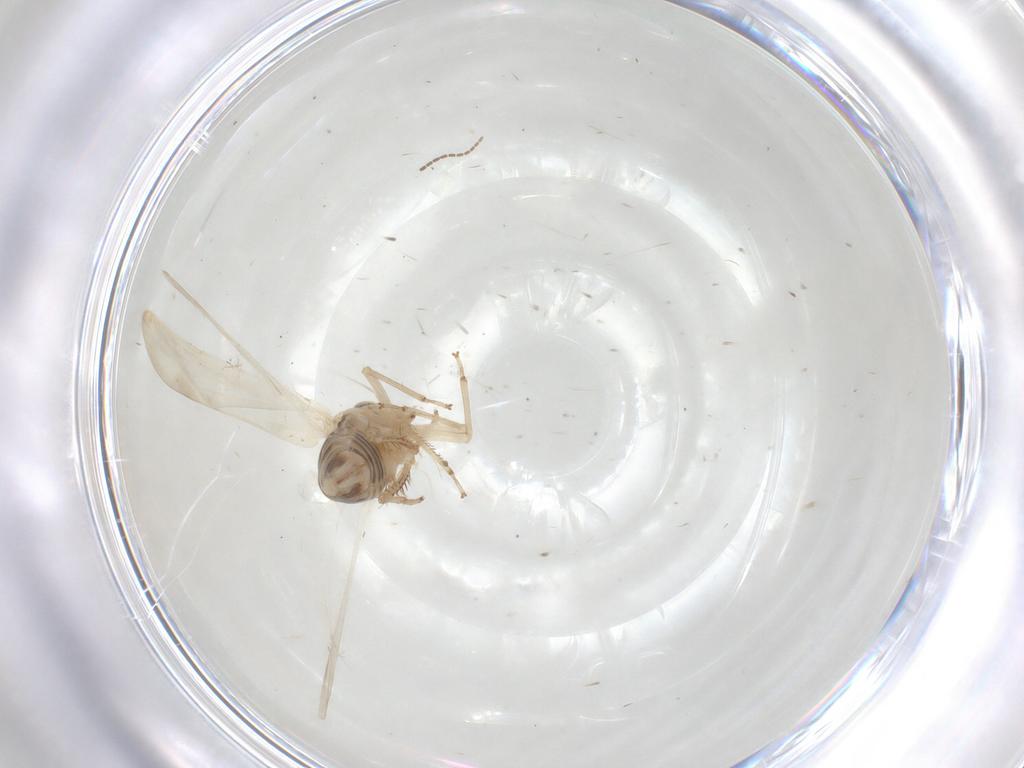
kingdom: Animalia
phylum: Arthropoda
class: Insecta
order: Hemiptera
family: Cicadellidae
